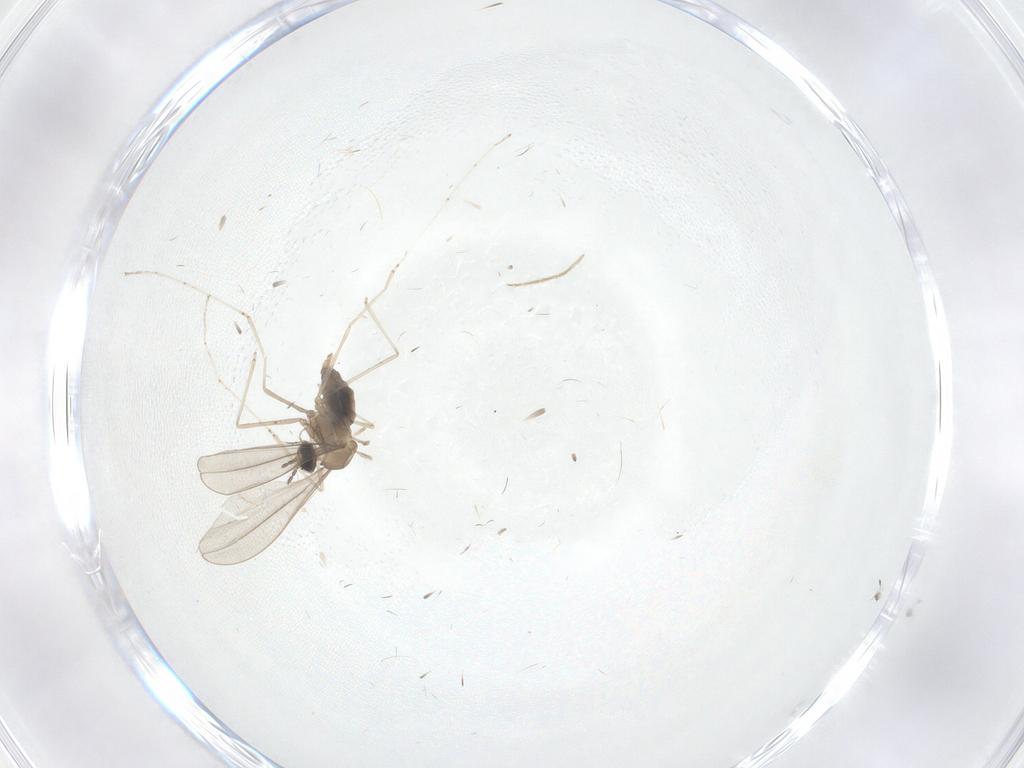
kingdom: Animalia
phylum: Arthropoda
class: Insecta
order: Diptera
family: Cecidomyiidae
